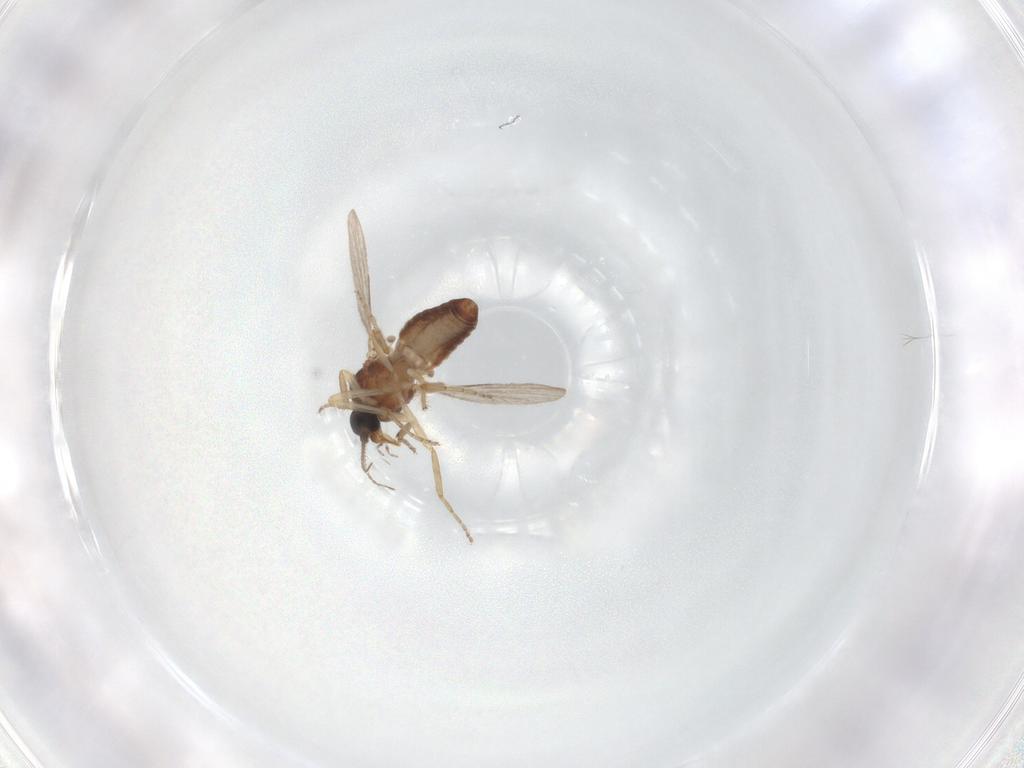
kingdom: Animalia
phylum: Arthropoda
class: Insecta
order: Diptera
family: Ceratopogonidae
